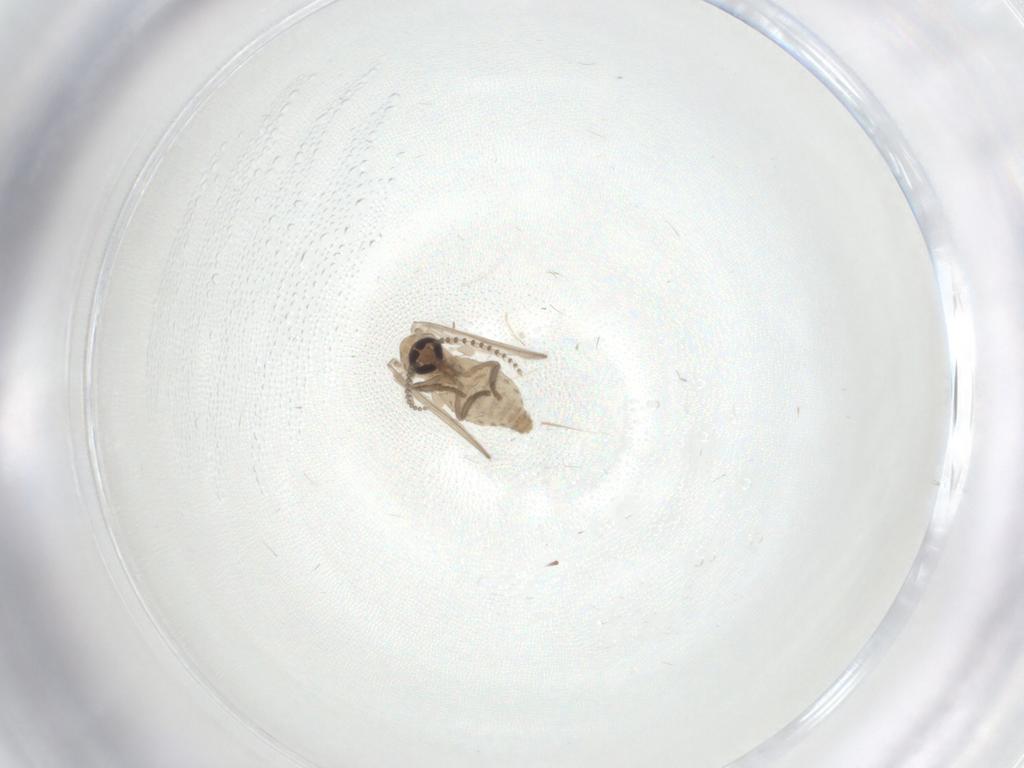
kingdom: Animalia
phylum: Arthropoda
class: Insecta
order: Diptera
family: Psychodidae
